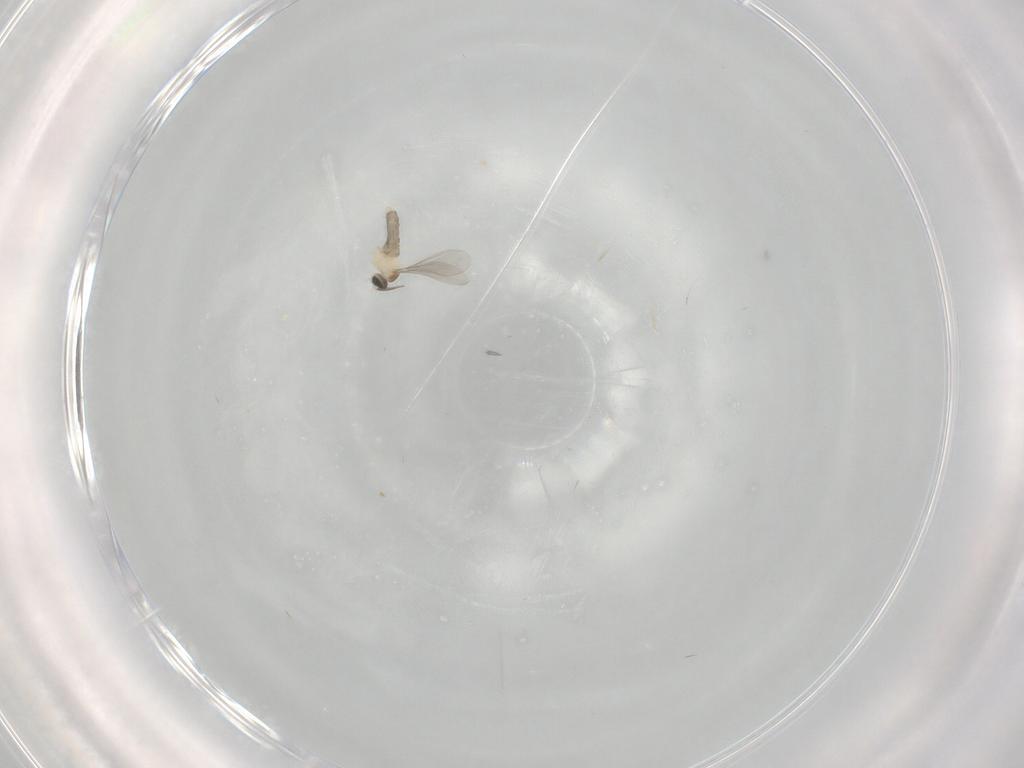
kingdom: Animalia
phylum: Arthropoda
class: Insecta
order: Diptera
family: Cecidomyiidae
